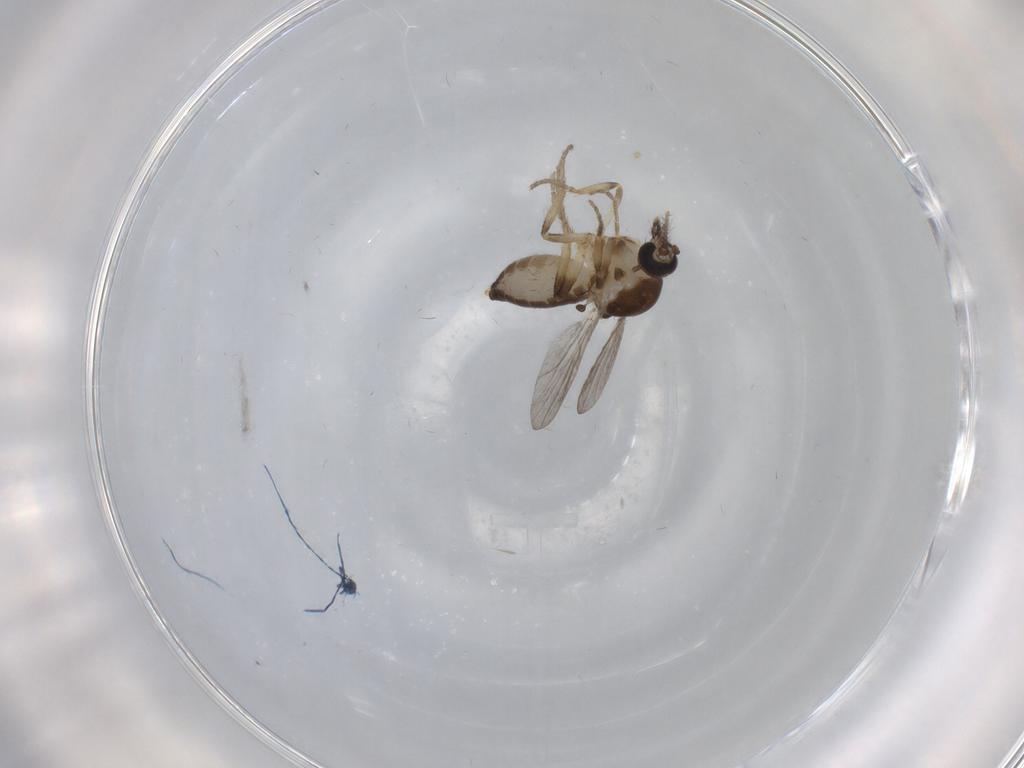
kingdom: Animalia
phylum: Arthropoda
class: Insecta
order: Diptera
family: Ceratopogonidae
